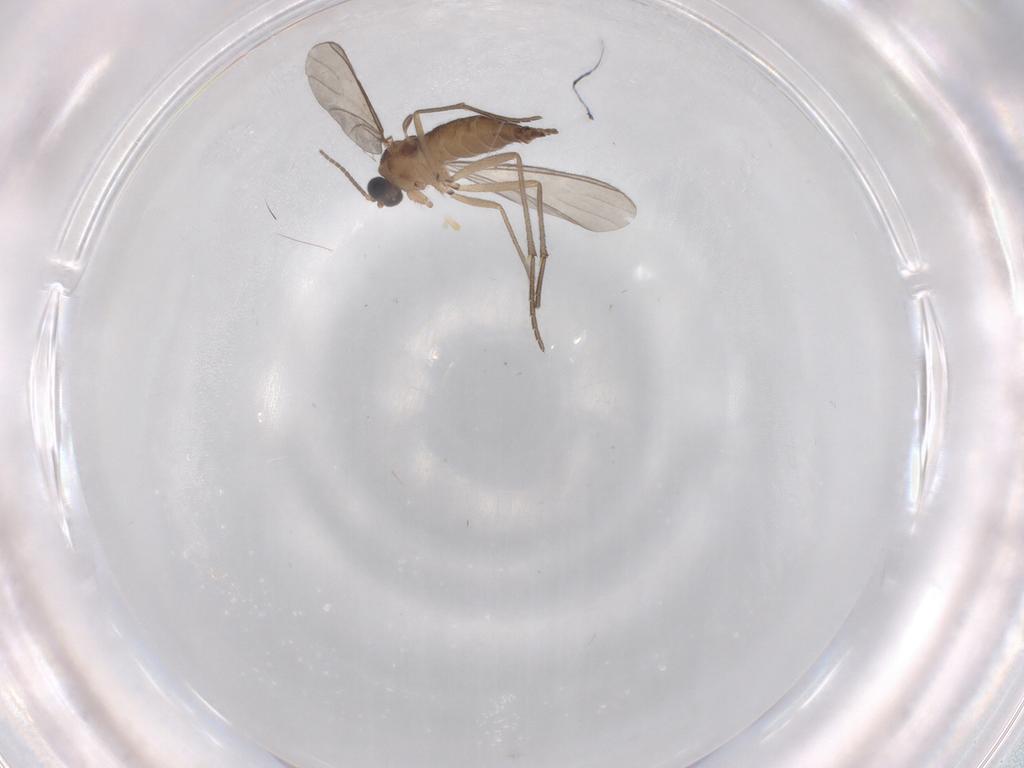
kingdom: Animalia
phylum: Arthropoda
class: Insecta
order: Diptera
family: Sciaridae
